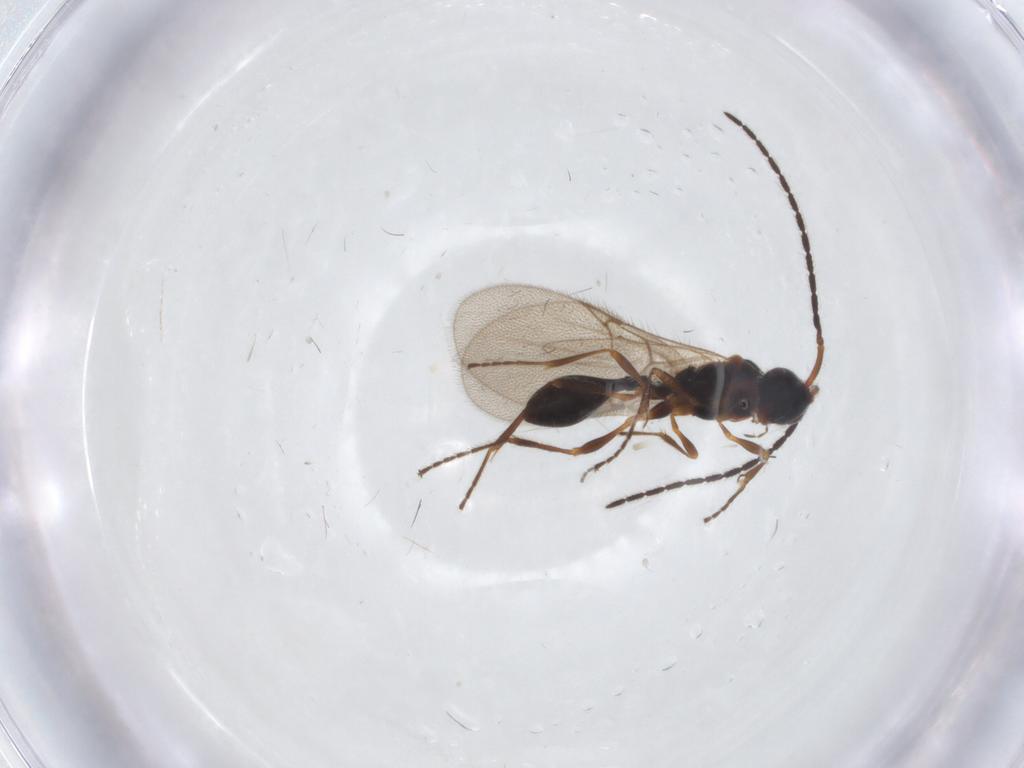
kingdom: Animalia
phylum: Arthropoda
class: Insecta
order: Hymenoptera
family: Diapriidae
